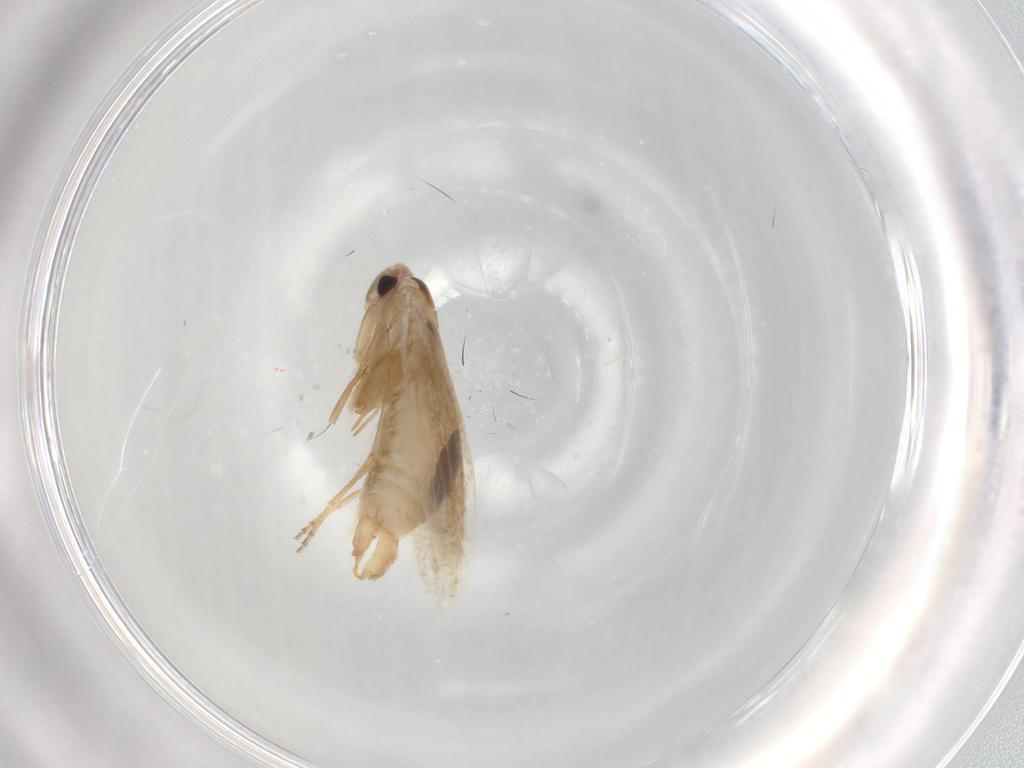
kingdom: Animalia
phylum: Arthropoda
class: Insecta
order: Lepidoptera
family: Bucculatricidae
